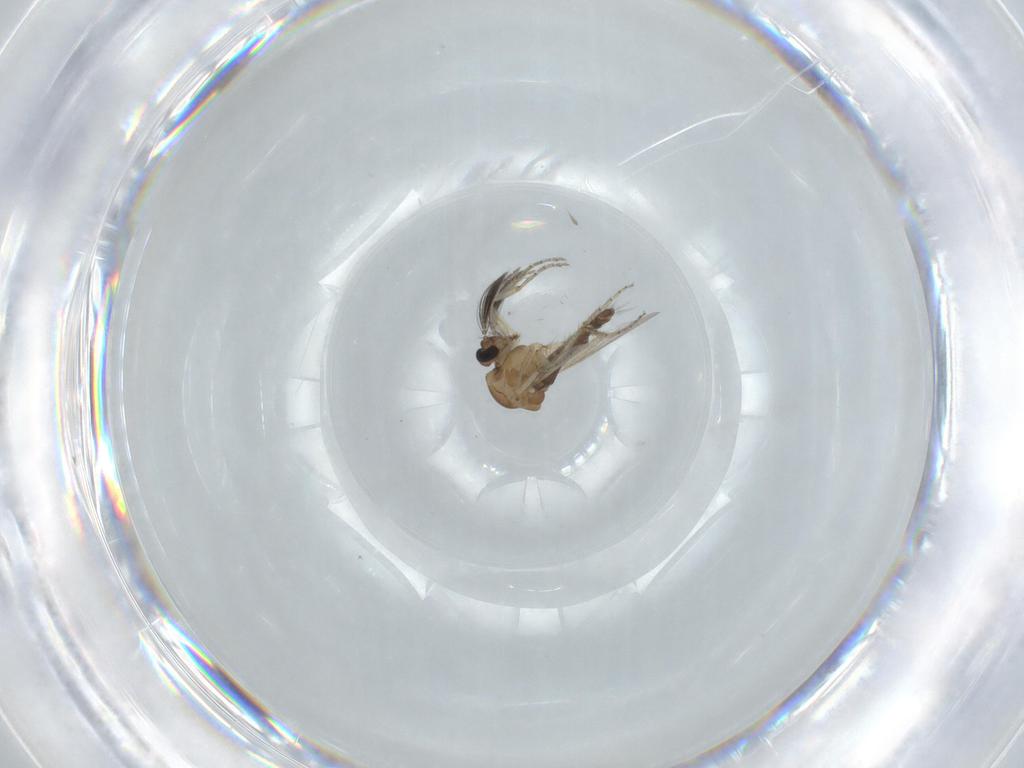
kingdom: Animalia
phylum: Arthropoda
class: Insecta
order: Diptera
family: Ceratopogonidae
